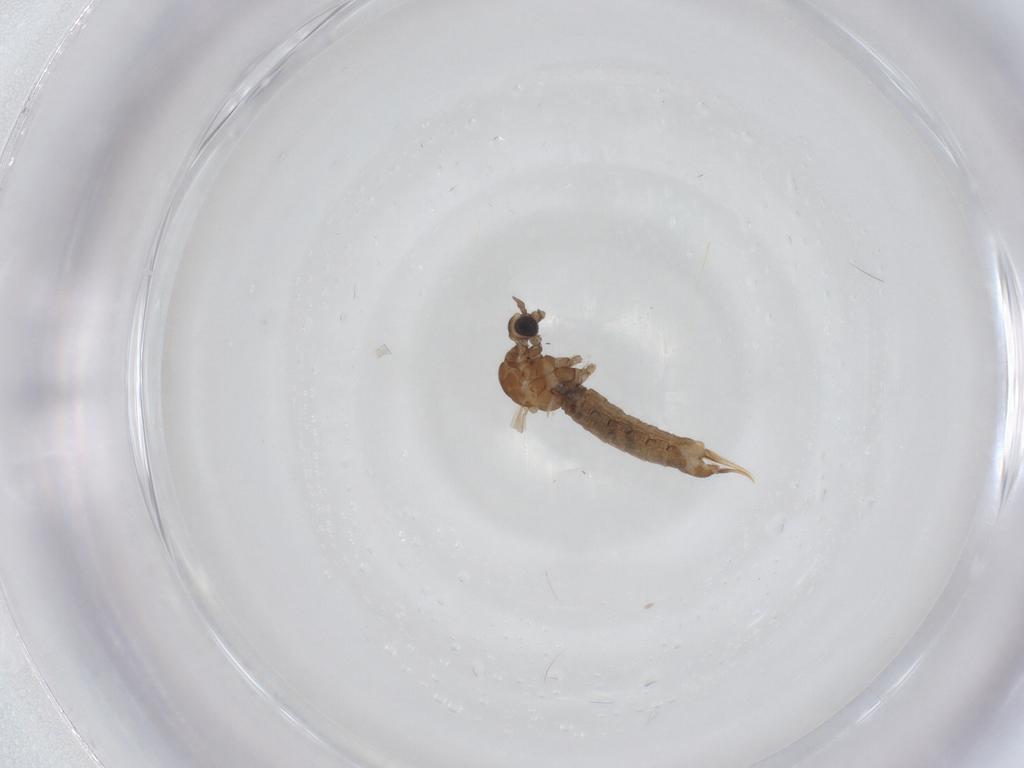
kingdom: Animalia
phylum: Arthropoda
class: Insecta
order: Diptera
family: Limoniidae
